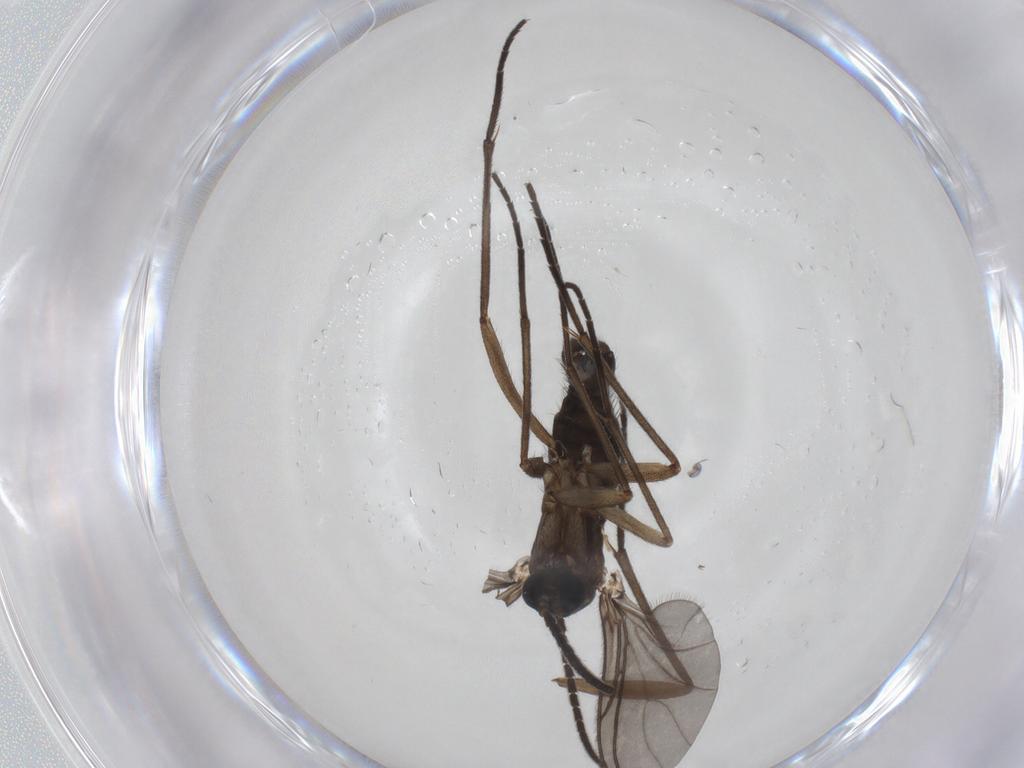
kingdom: Animalia
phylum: Arthropoda
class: Insecta
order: Diptera
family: Sciaridae
